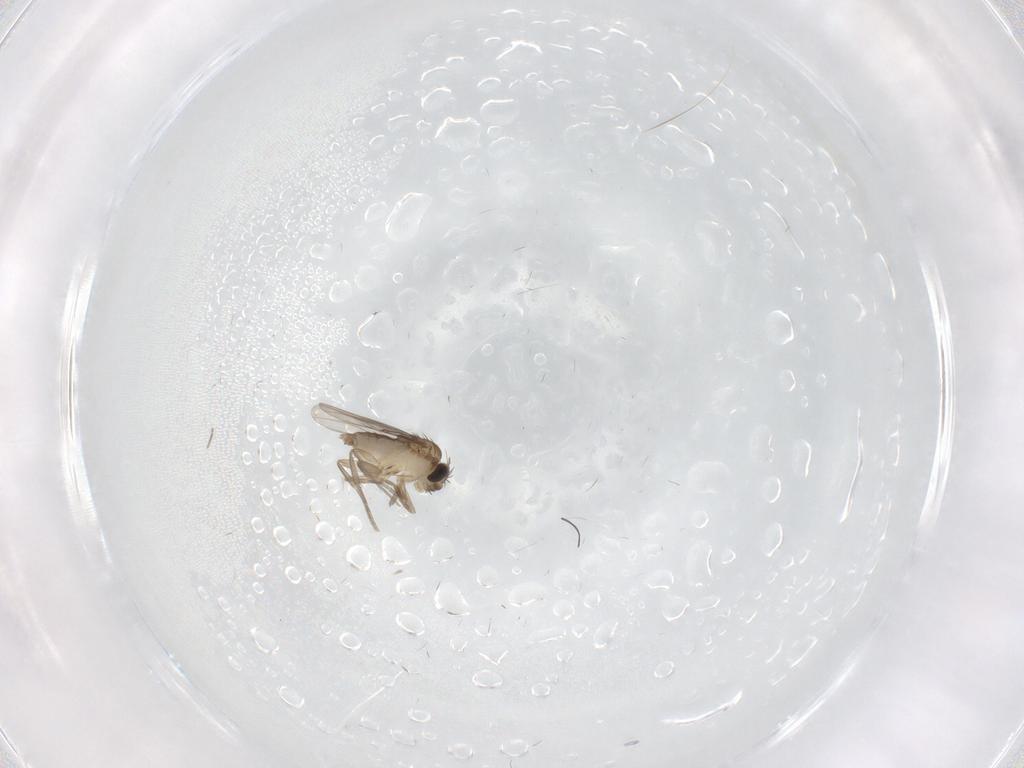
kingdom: Animalia
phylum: Arthropoda
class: Insecta
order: Diptera
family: Phoridae
